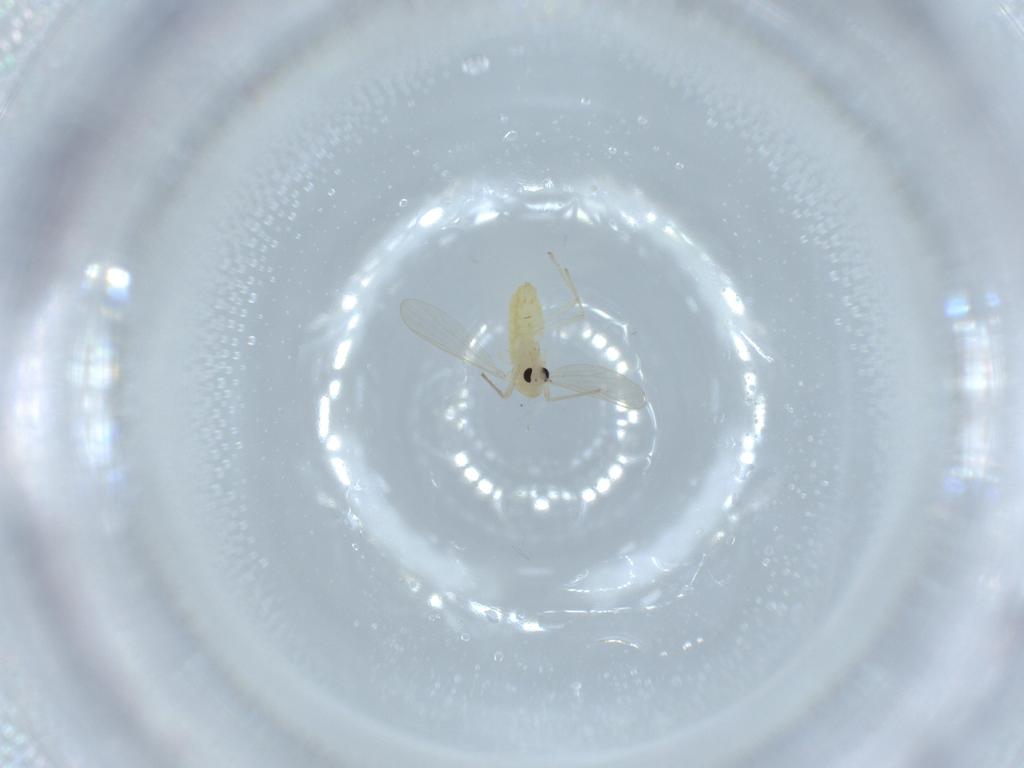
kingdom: Animalia
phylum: Arthropoda
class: Insecta
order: Diptera
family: Chironomidae
